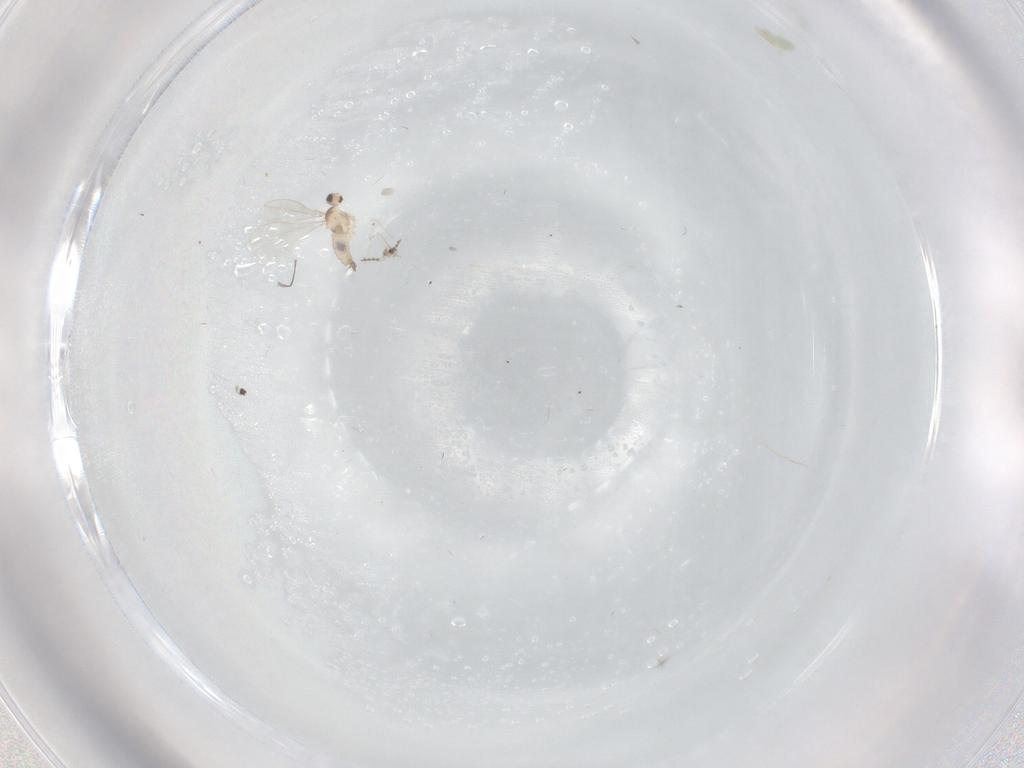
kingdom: Animalia
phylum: Arthropoda
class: Insecta
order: Diptera
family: Cecidomyiidae
